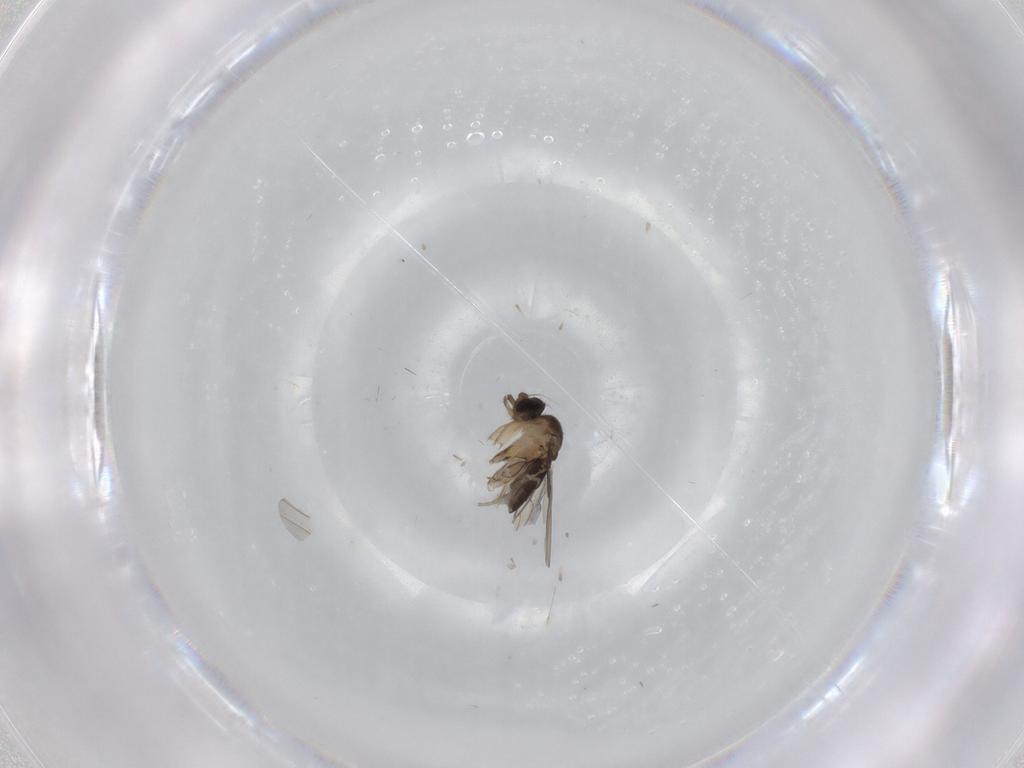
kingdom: Animalia
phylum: Arthropoda
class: Insecta
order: Diptera
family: Phoridae
